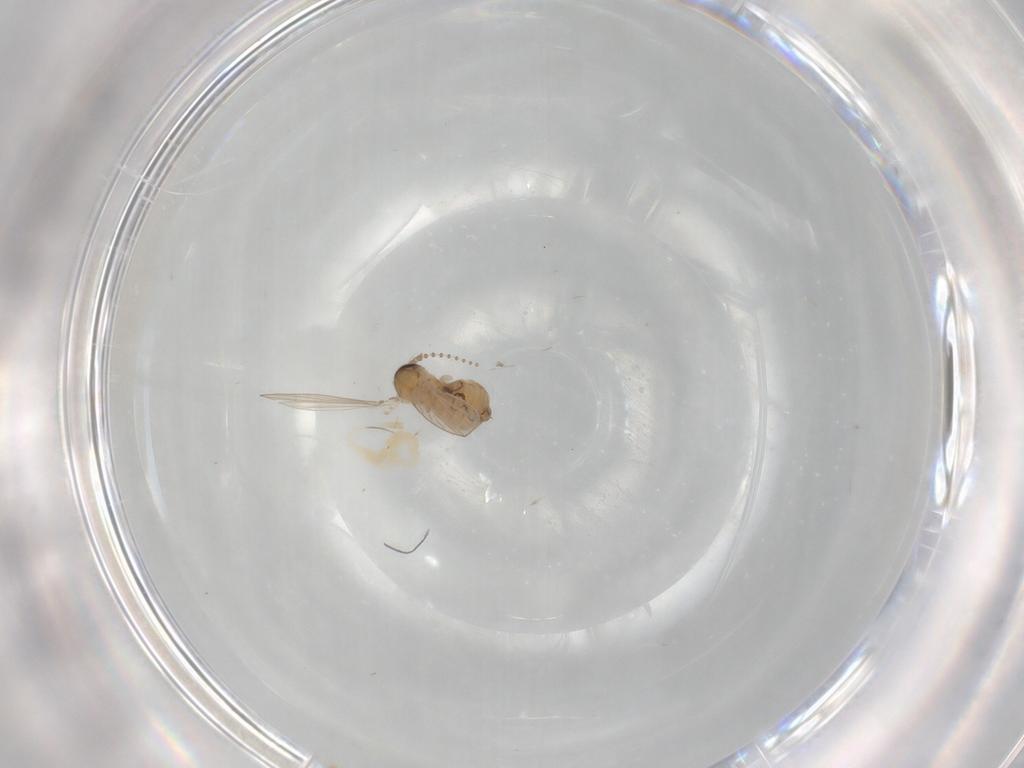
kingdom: Animalia
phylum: Arthropoda
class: Insecta
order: Diptera
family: Psychodidae
